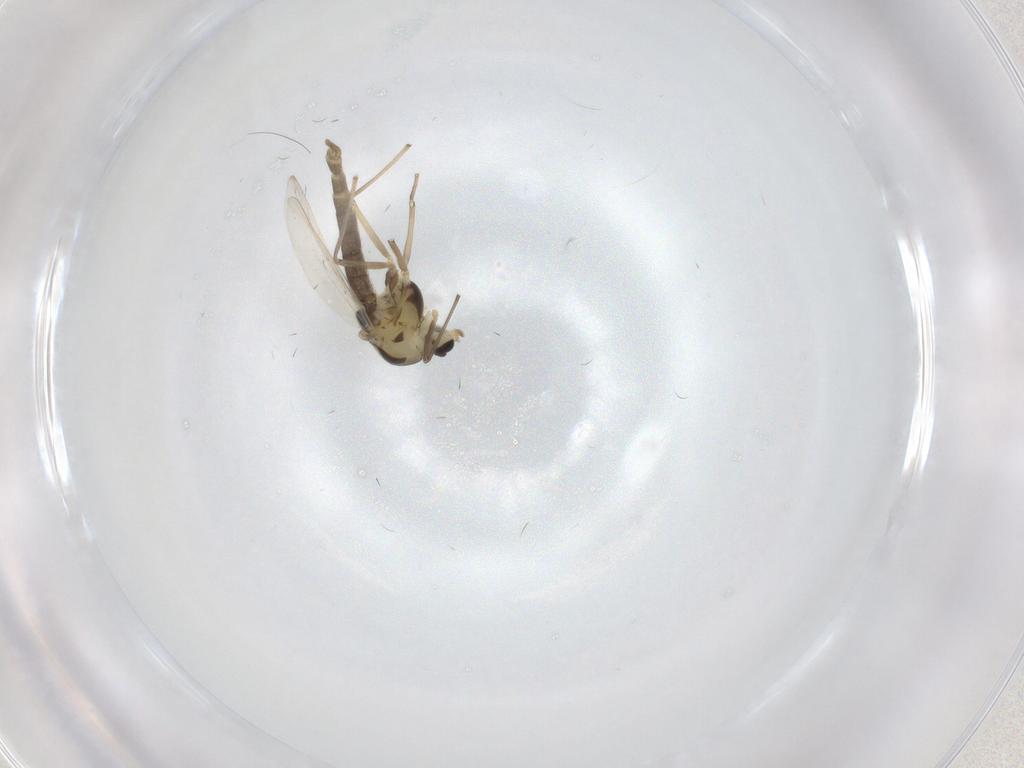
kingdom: Animalia
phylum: Arthropoda
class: Insecta
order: Diptera
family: Chironomidae
